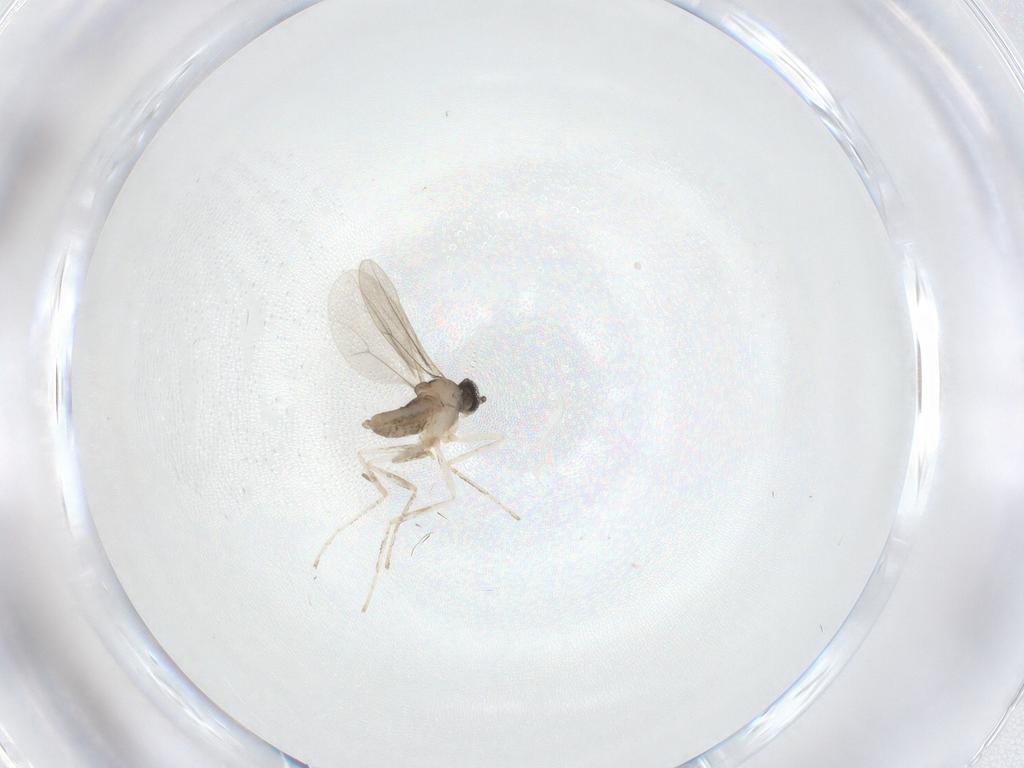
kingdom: Animalia
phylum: Arthropoda
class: Insecta
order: Diptera
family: Cecidomyiidae
